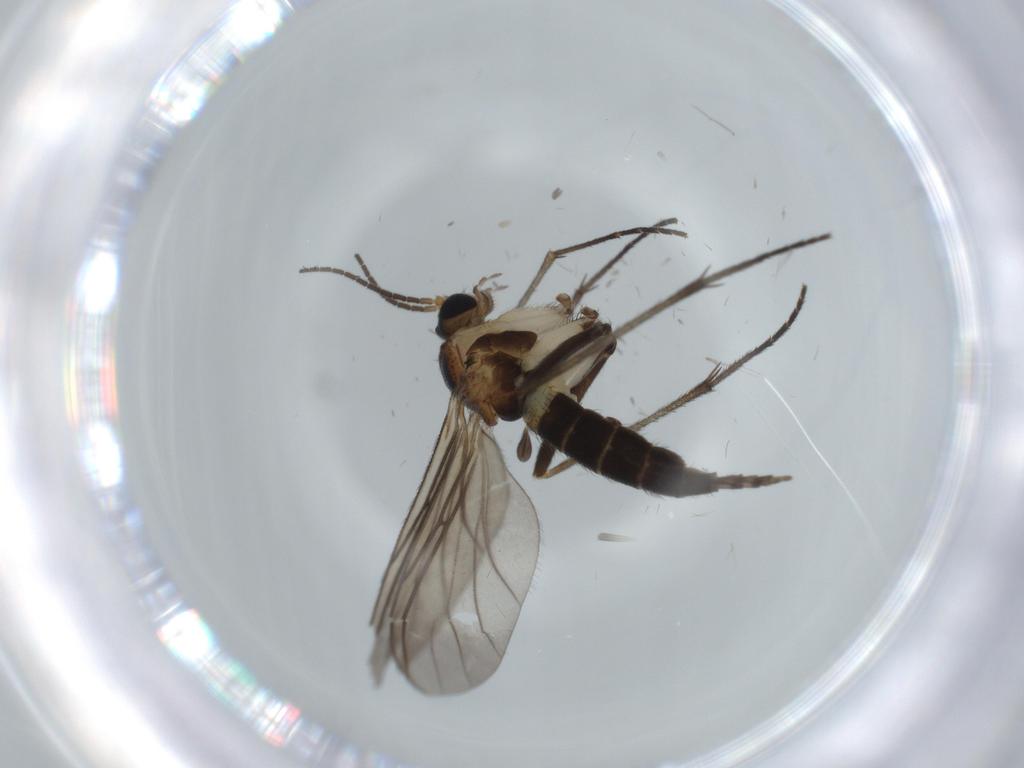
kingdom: Animalia
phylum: Arthropoda
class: Insecta
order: Diptera
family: Sciaridae
